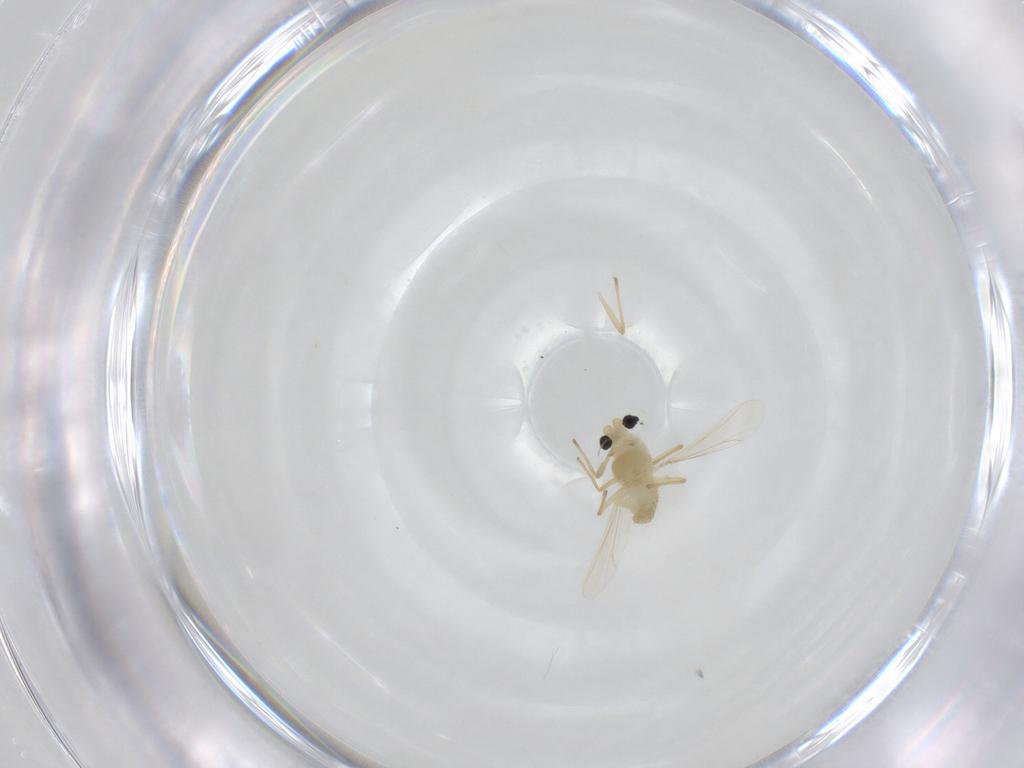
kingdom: Animalia
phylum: Arthropoda
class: Insecta
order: Diptera
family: Chironomidae
